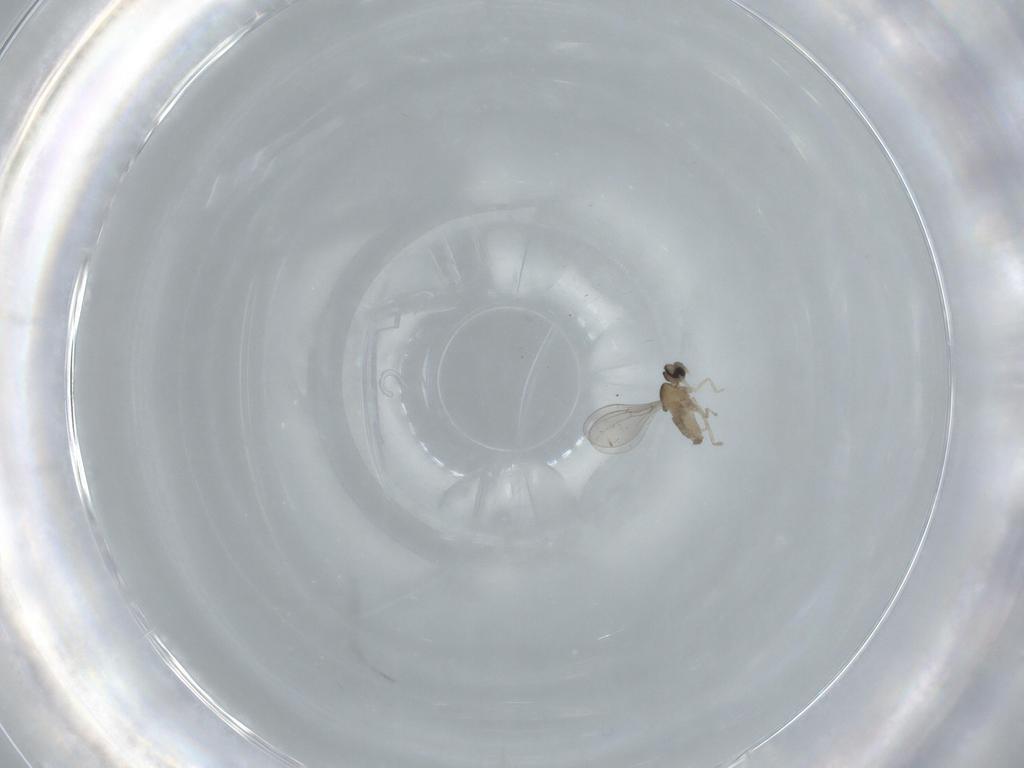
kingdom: Animalia
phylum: Arthropoda
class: Insecta
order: Diptera
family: Cecidomyiidae
